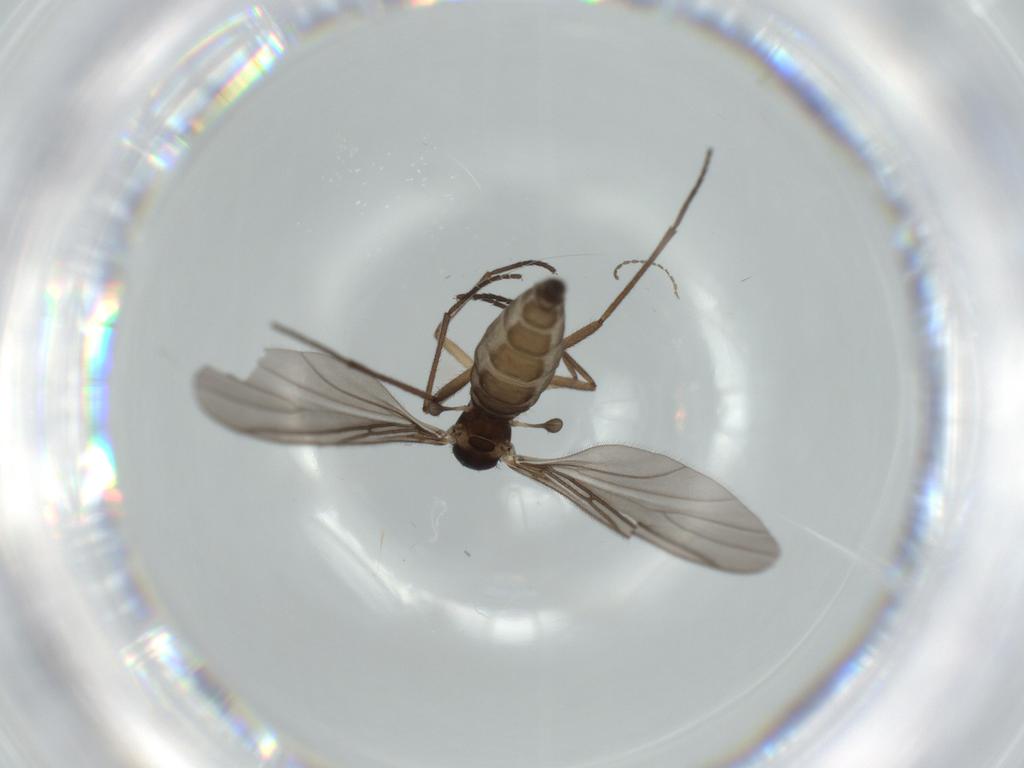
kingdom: Animalia
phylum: Arthropoda
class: Insecta
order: Diptera
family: Sciaridae
